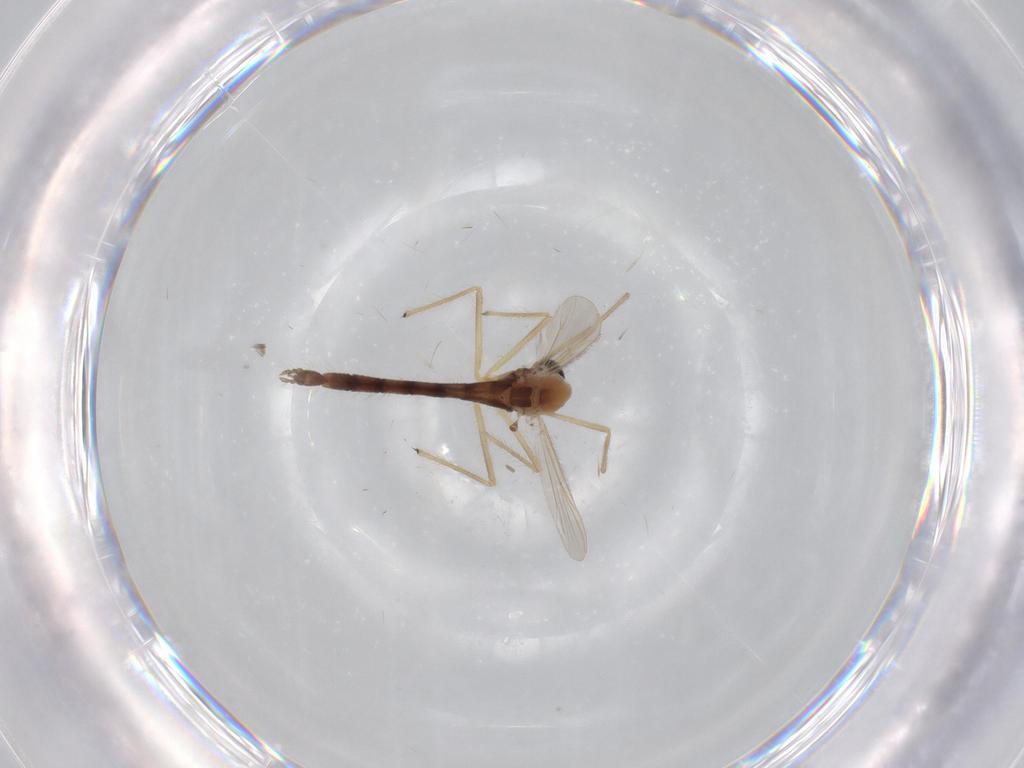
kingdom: Animalia
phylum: Arthropoda
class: Insecta
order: Diptera
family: Chironomidae
